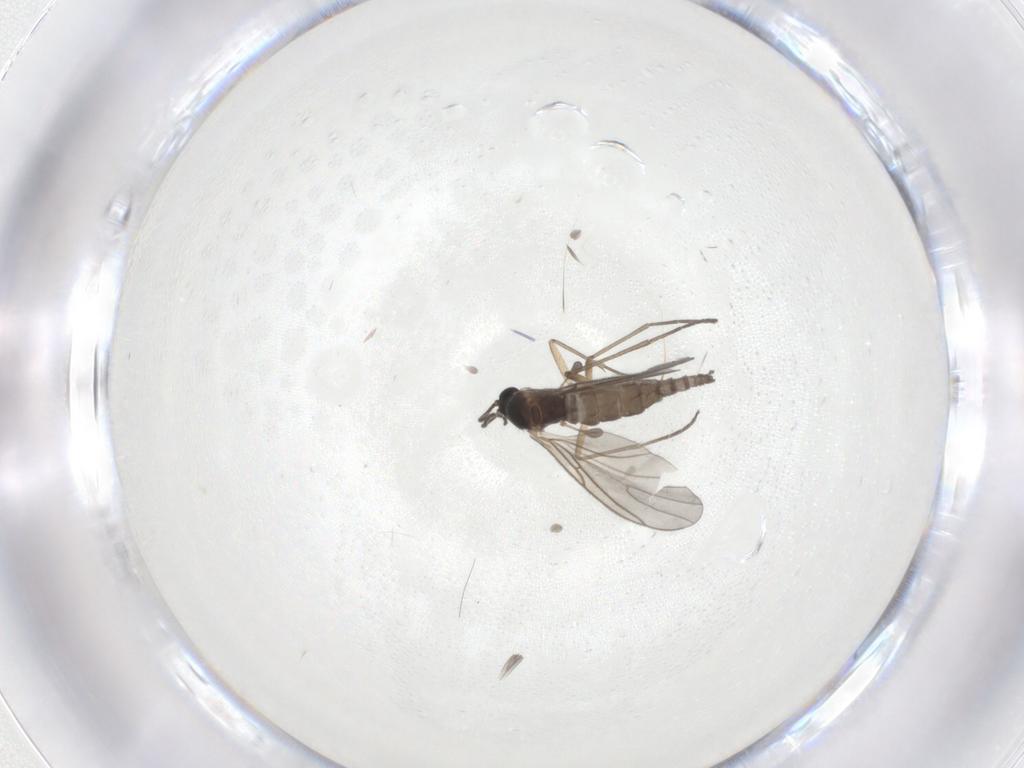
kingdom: Animalia
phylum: Arthropoda
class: Insecta
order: Diptera
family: Sciaridae
